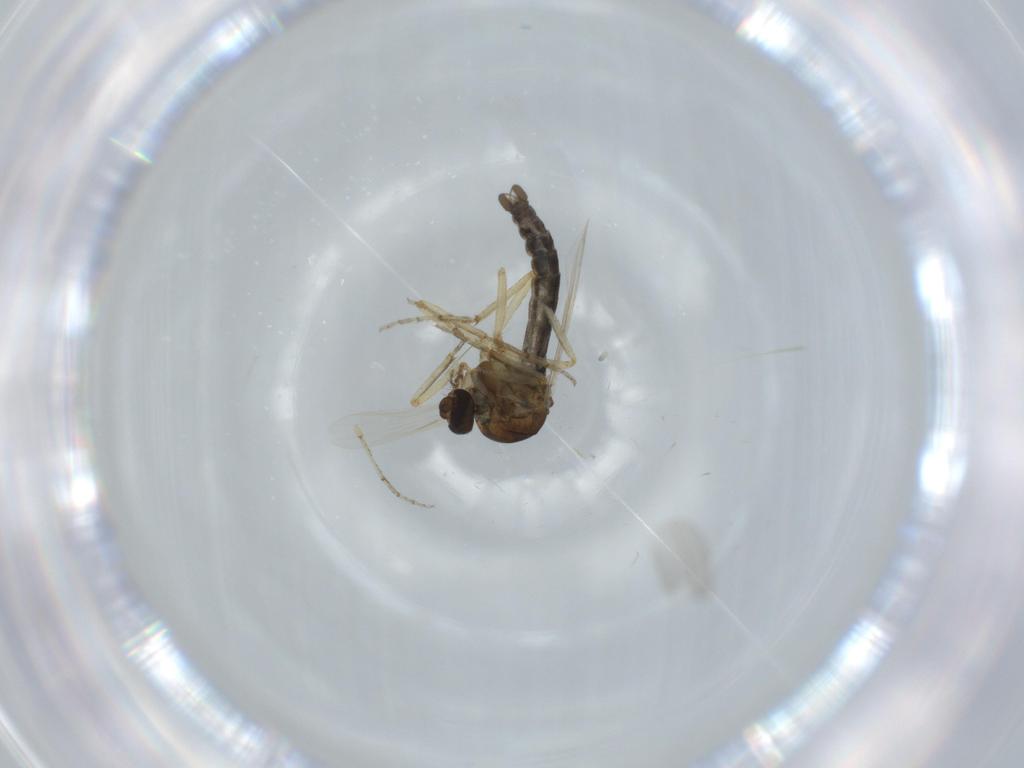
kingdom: Animalia
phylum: Arthropoda
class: Insecta
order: Diptera
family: Ceratopogonidae
